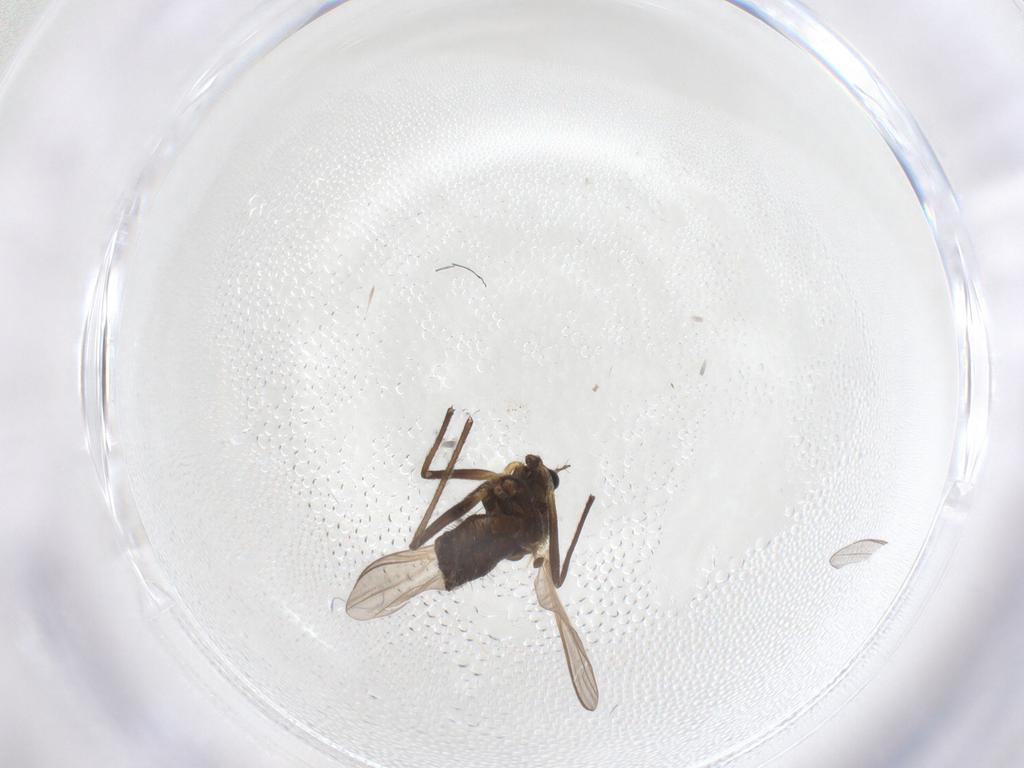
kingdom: Animalia
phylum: Arthropoda
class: Insecta
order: Diptera
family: Chironomidae
